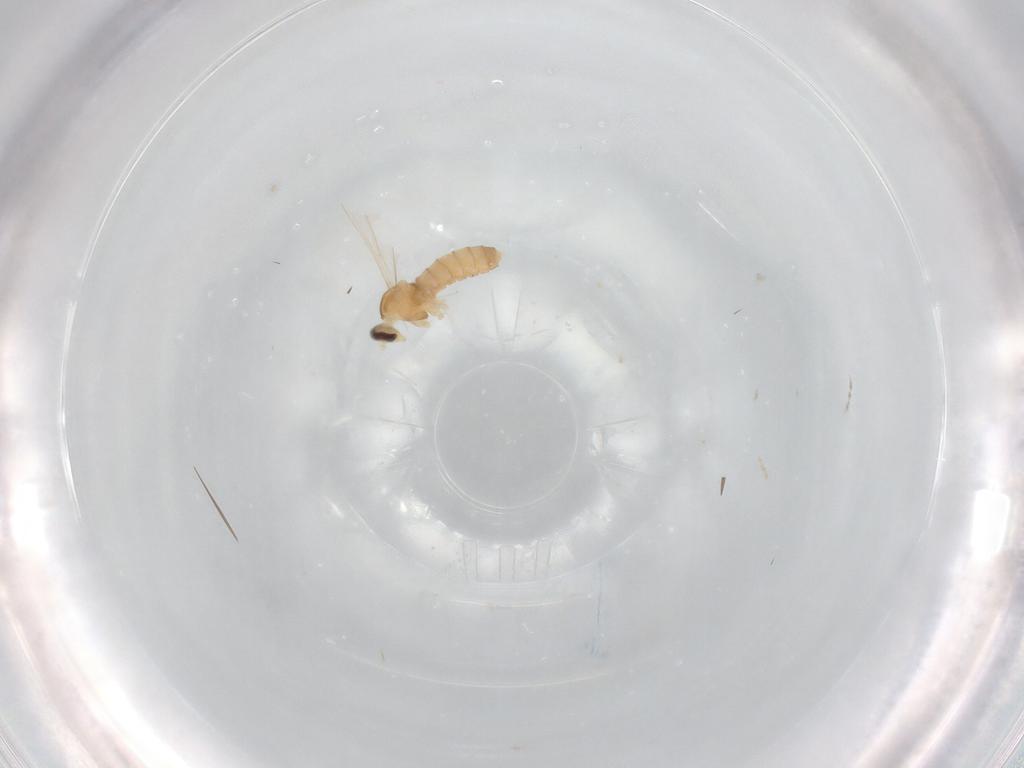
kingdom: Animalia
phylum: Arthropoda
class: Insecta
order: Diptera
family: Cecidomyiidae
